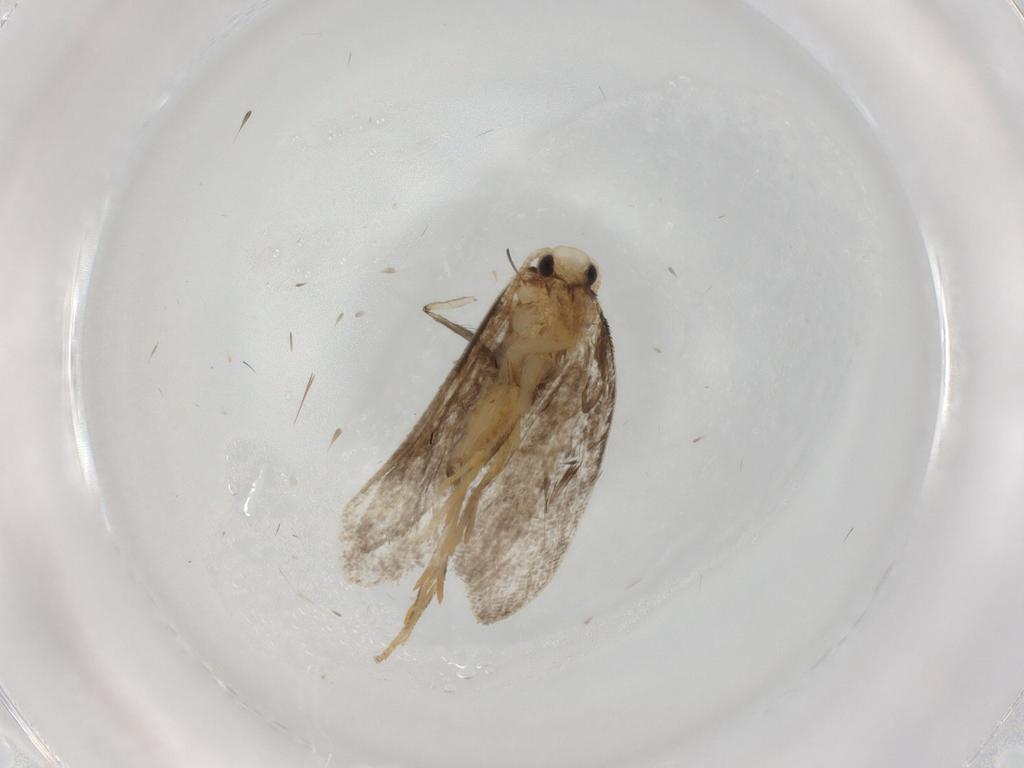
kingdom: Animalia
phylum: Arthropoda
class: Insecta
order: Lepidoptera
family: Psychidae
